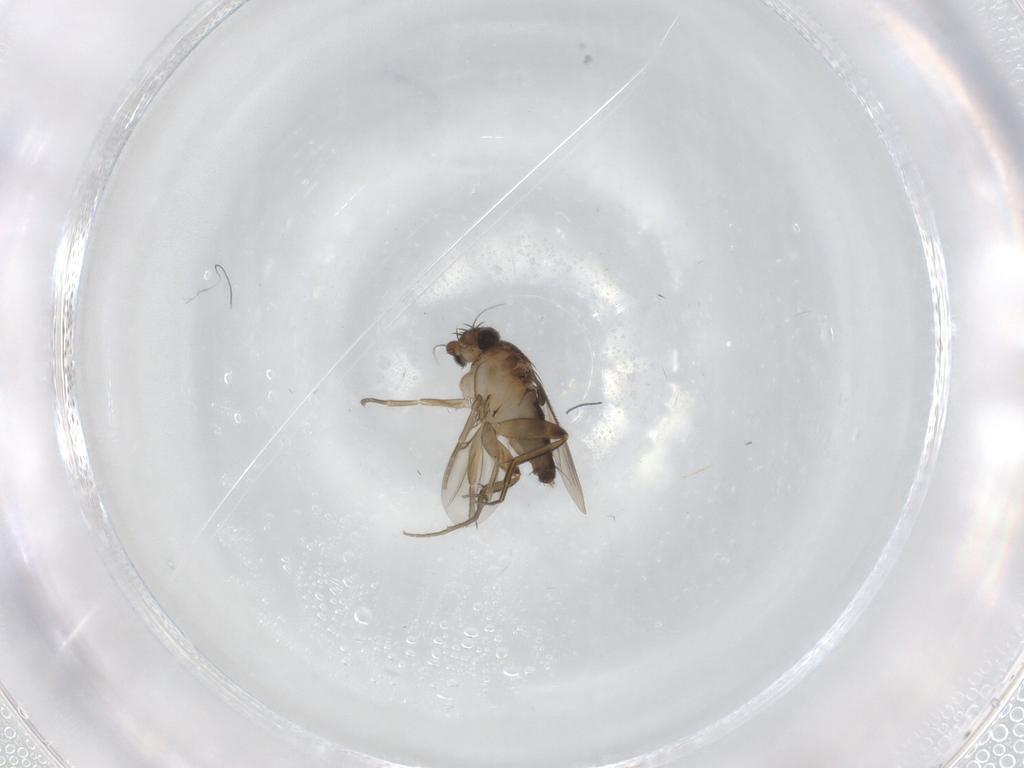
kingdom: Animalia
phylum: Arthropoda
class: Insecta
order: Diptera
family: Phoridae
